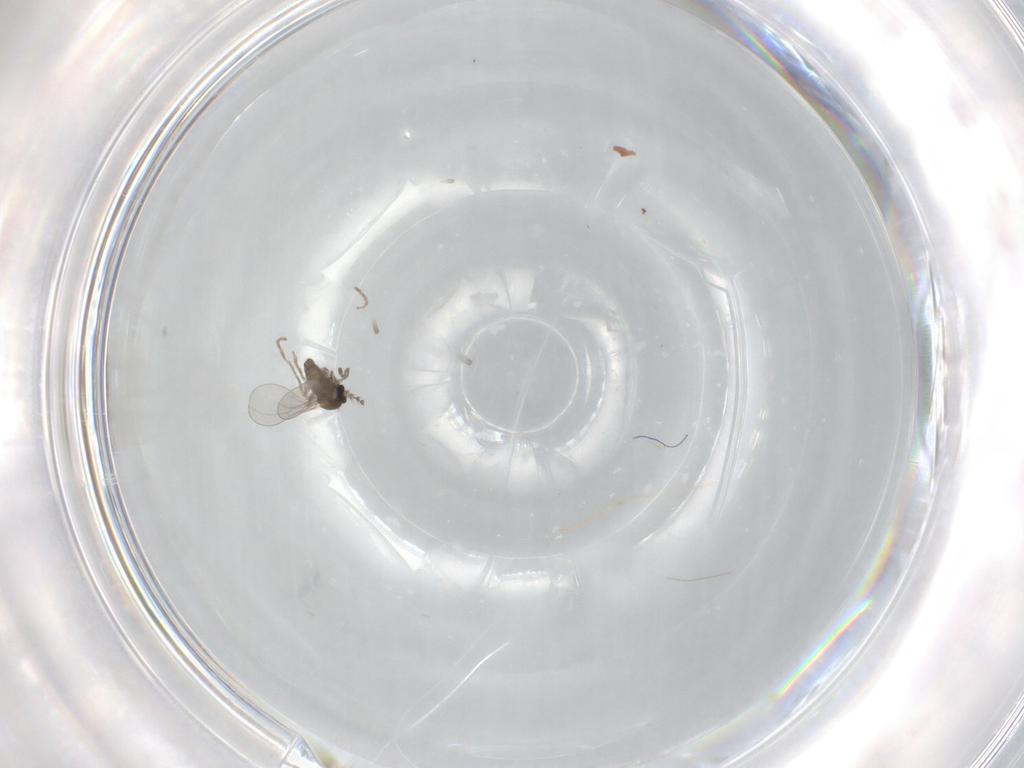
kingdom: Animalia
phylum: Arthropoda
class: Insecta
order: Diptera
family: Cecidomyiidae
